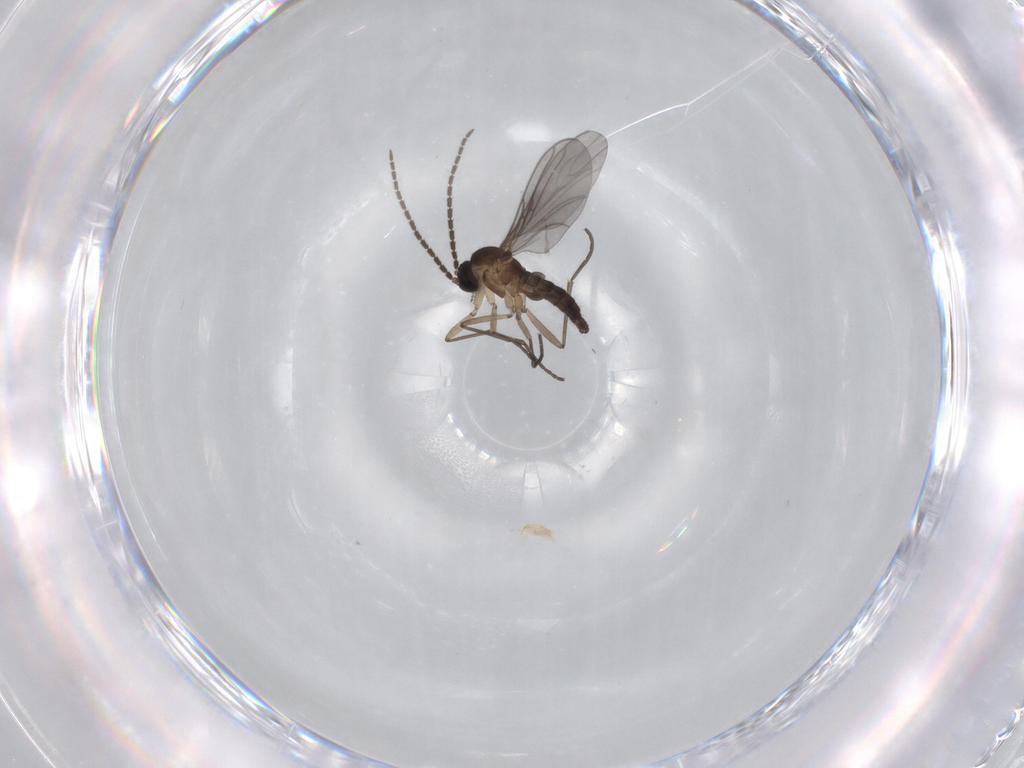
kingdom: Animalia
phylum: Arthropoda
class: Insecta
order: Diptera
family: Sciaridae
